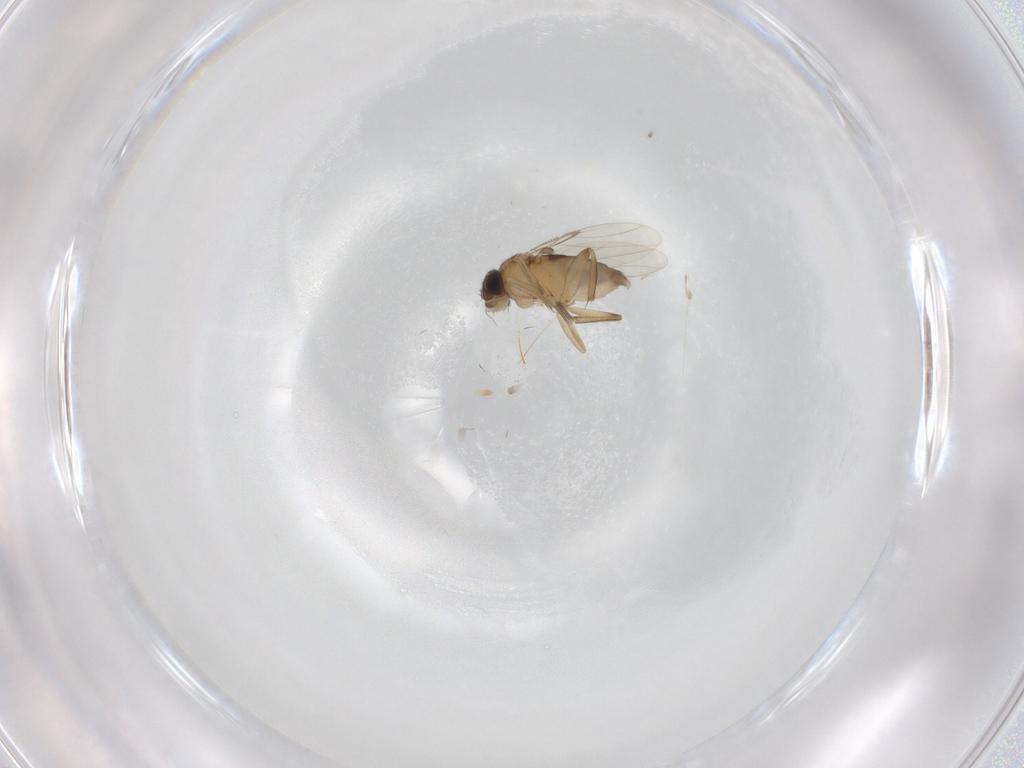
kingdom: Animalia
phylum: Arthropoda
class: Insecta
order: Diptera
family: Phoridae
